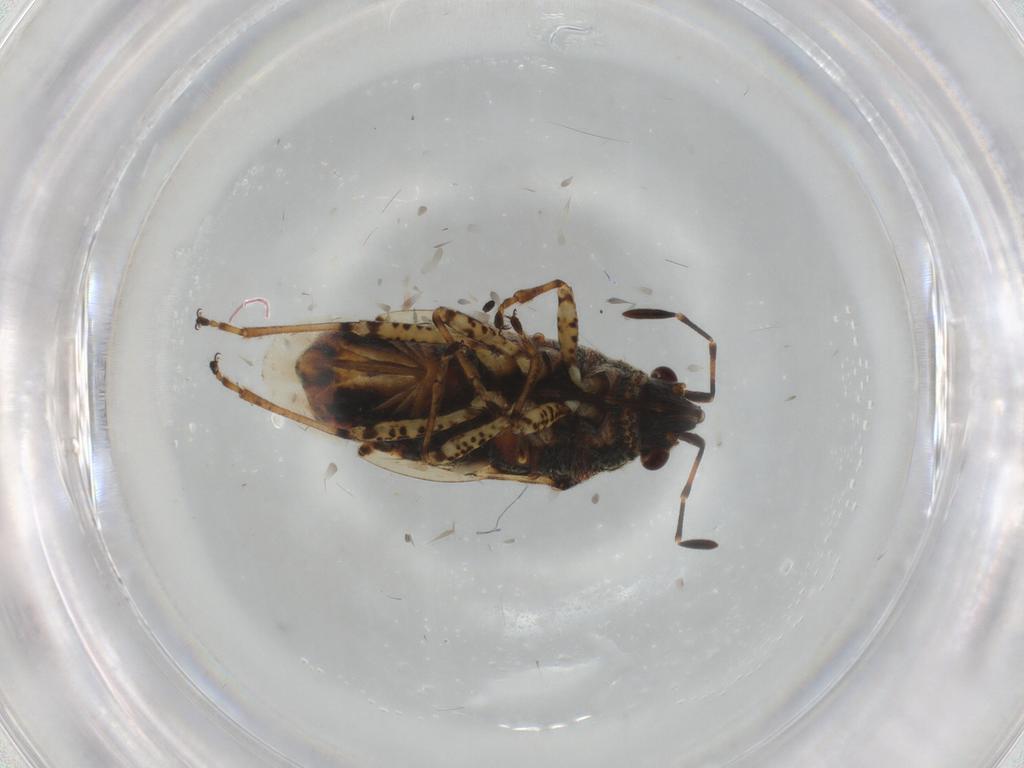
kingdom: Animalia
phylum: Arthropoda
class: Insecta
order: Hemiptera
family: Lygaeidae
